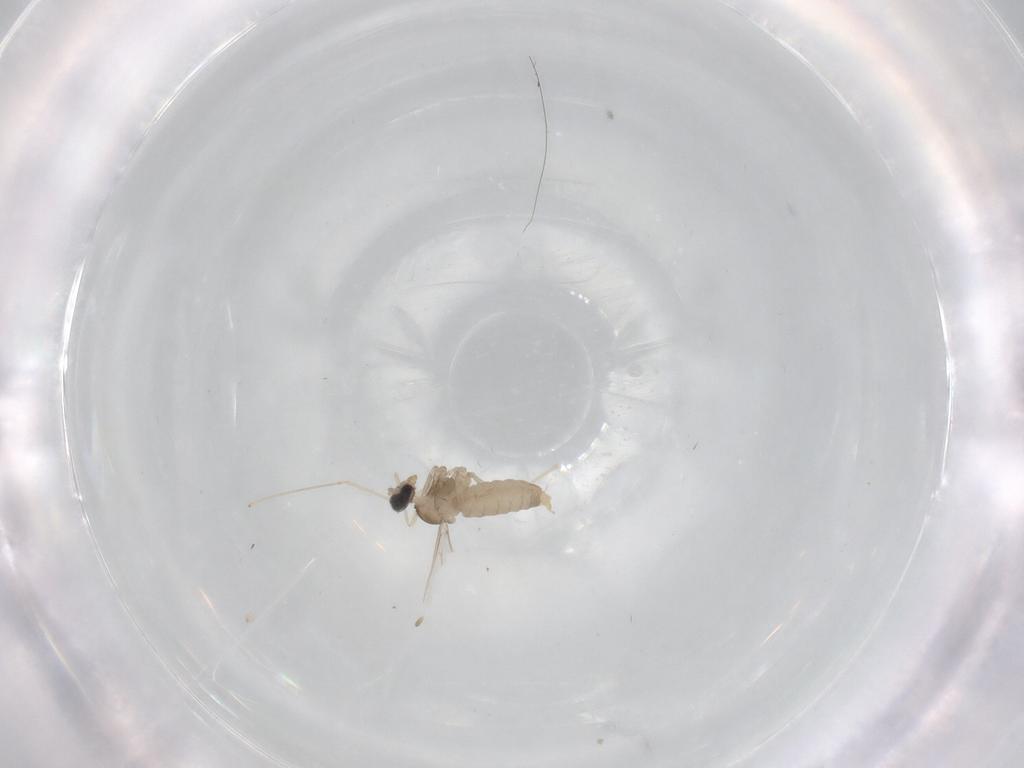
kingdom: Animalia
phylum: Arthropoda
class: Insecta
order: Diptera
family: Cecidomyiidae
